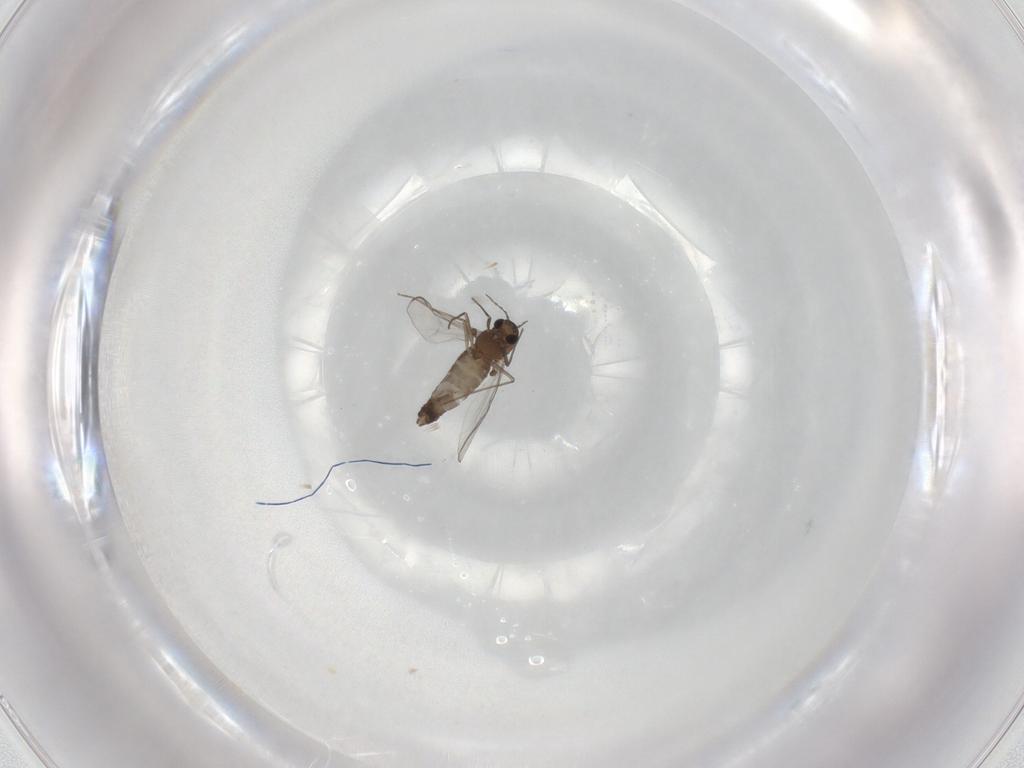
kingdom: Animalia
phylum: Arthropoda
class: Insecta
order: Diptera
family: Chironomidae
